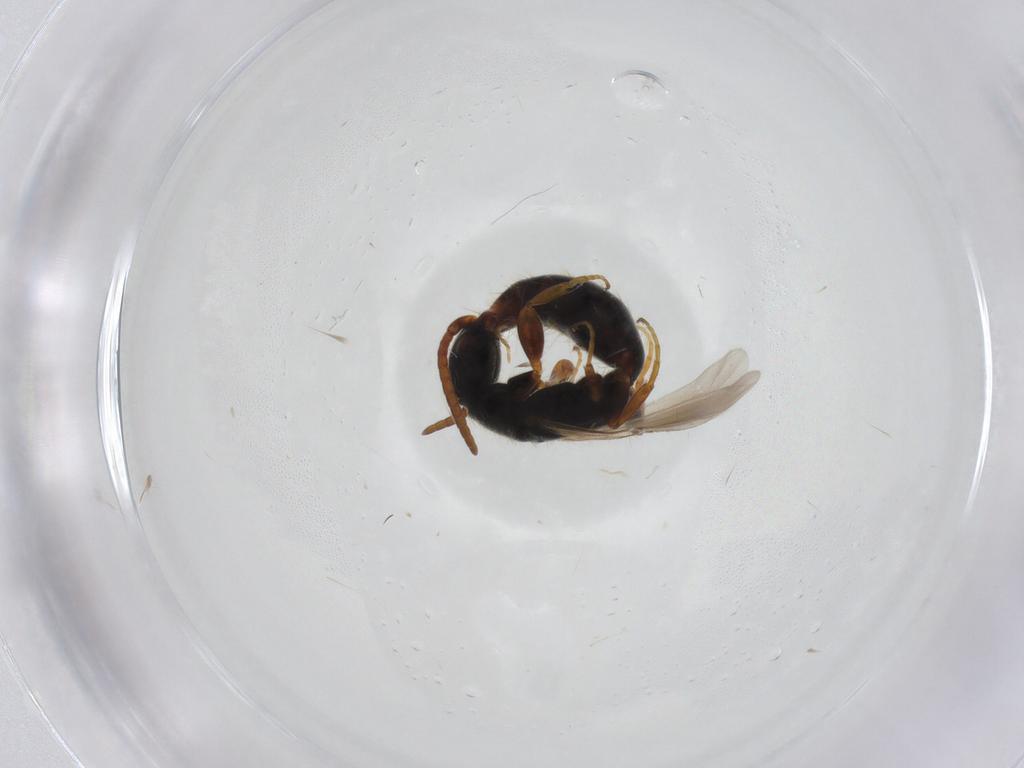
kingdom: Animalia
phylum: Arthropoda
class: Insecta
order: Hymenoptera
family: Bethylidae
